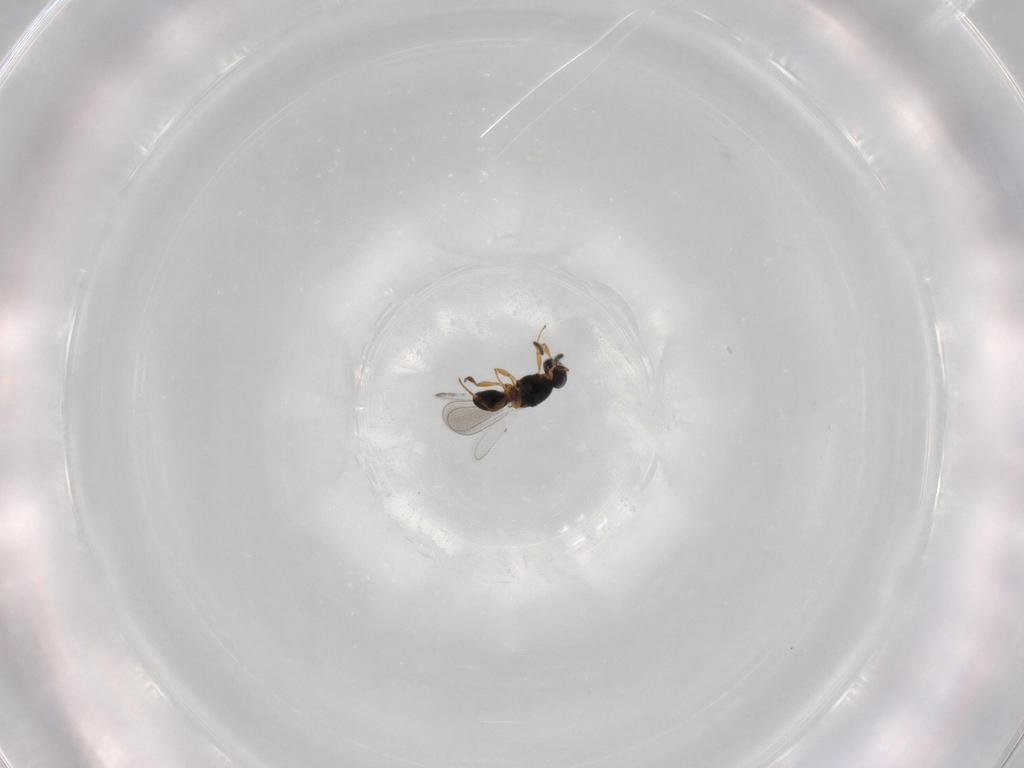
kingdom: Animalia
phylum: Arthropoda
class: Insecta
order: Hymenoptera
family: Platygastridae
